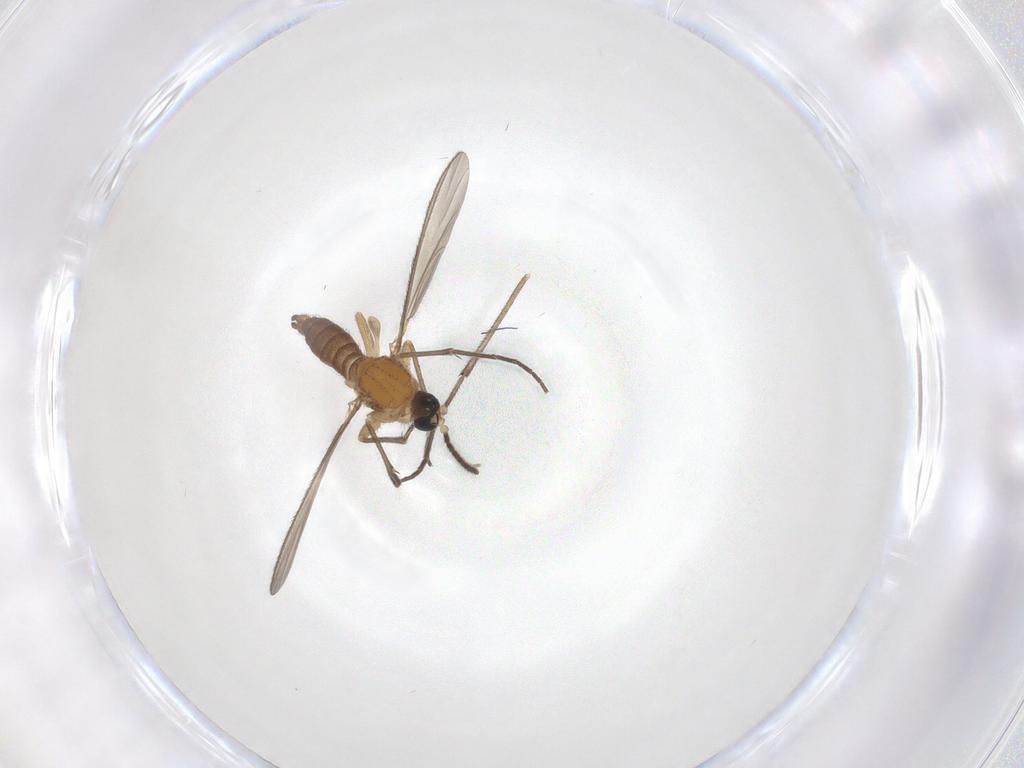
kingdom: Animalia
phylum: Arthropoda
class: Insecta
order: Diptera
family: Sciaridae
